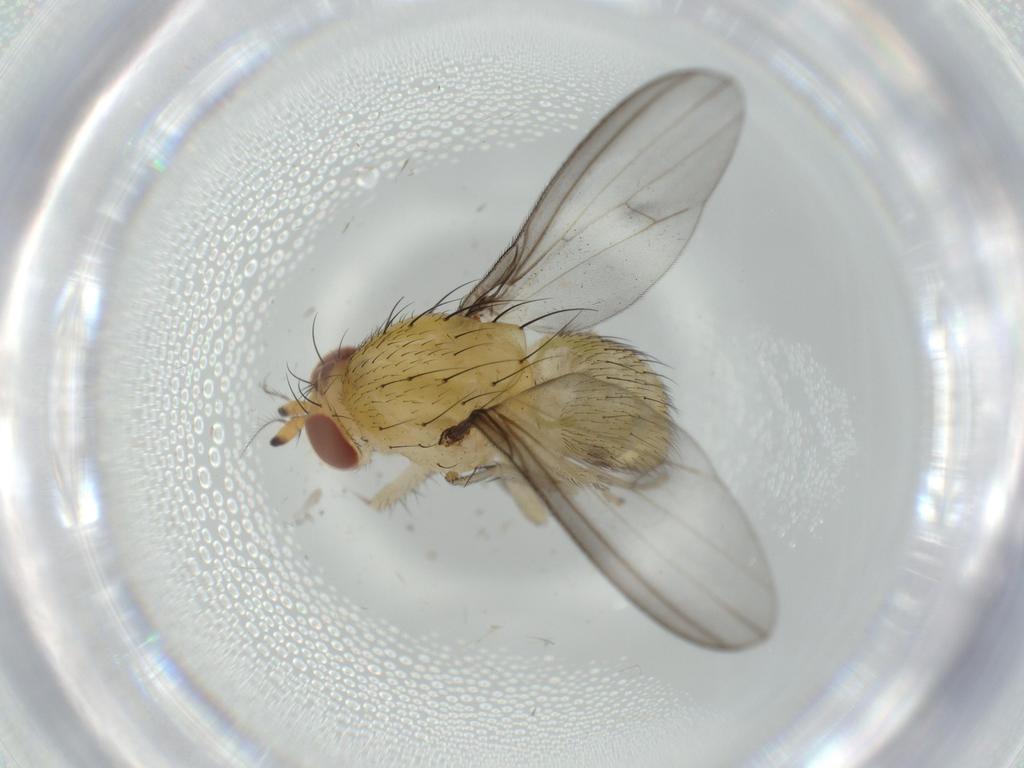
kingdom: Animalia
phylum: Arthropoda
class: Insecta
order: Diptera
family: Lauxaniidae
